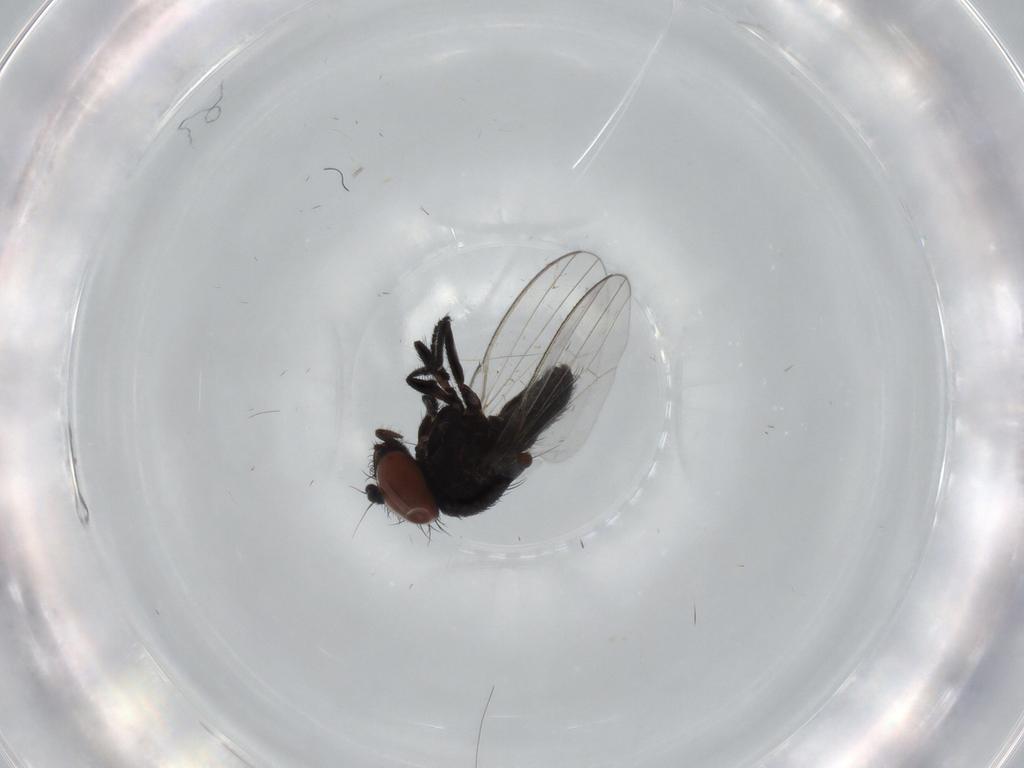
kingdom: Animalia
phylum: Arthropoda
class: Insecta
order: Diptera
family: Milichiidae
